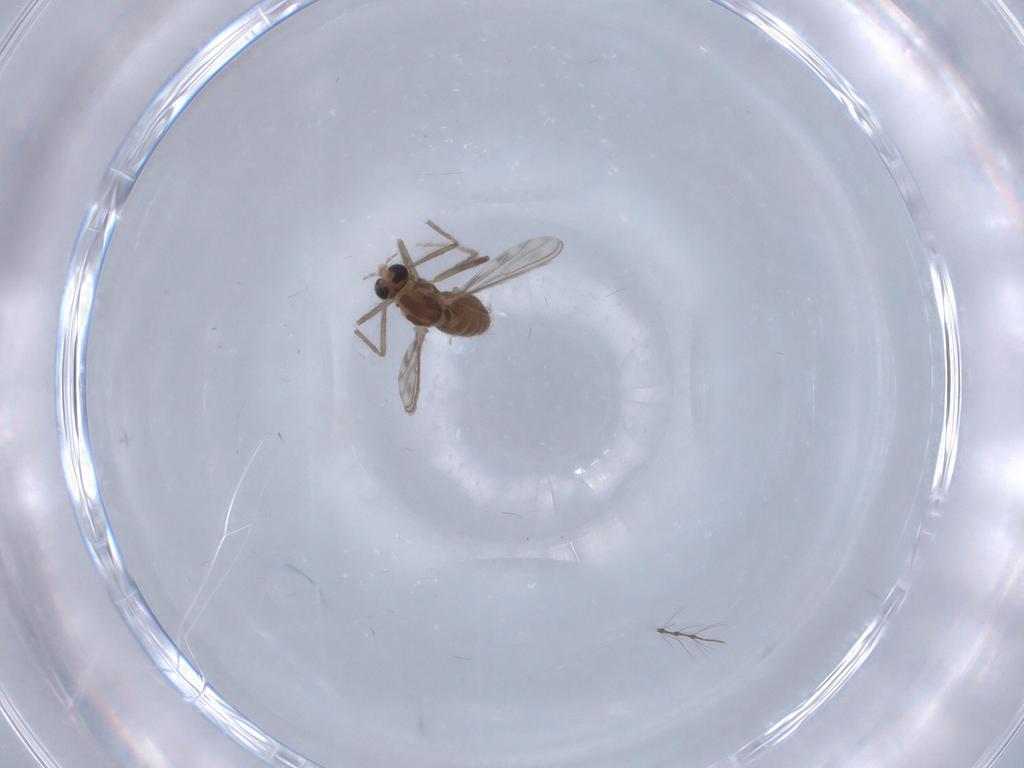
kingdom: Animalia
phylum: Arthropoda
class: Insecta
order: Diptera
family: Chironomidae
